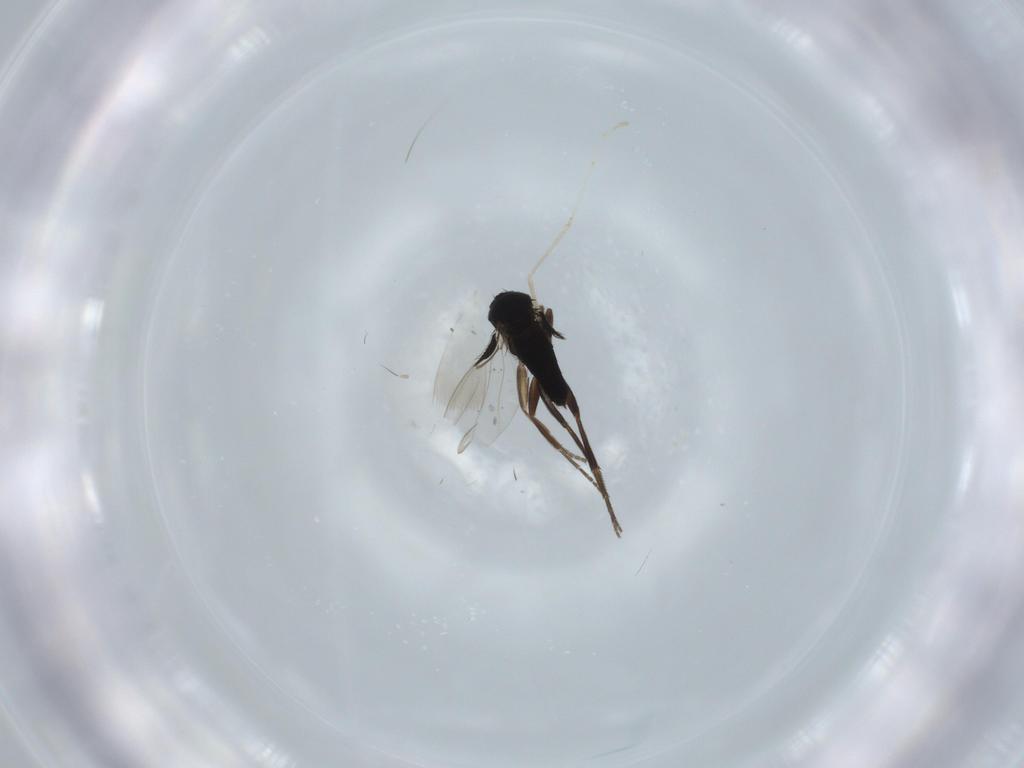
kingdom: Animalia
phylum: Arthropoda
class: Insecta
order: Diptera
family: Phoridae
